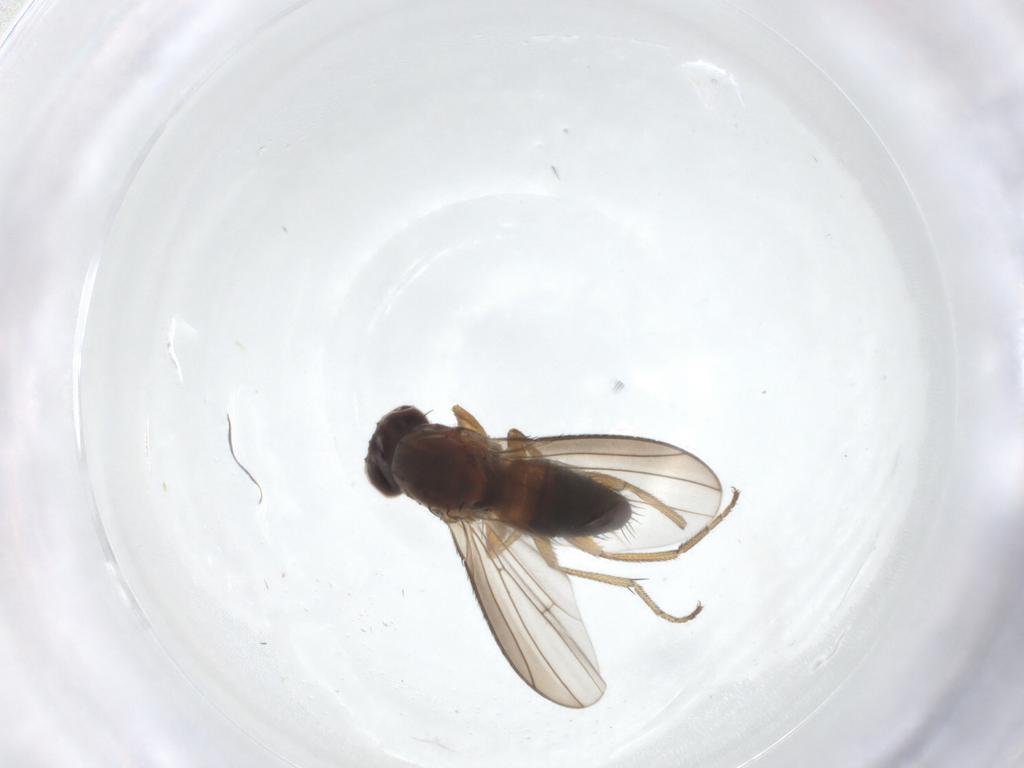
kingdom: Animalia
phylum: Arthropoda
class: Insecta
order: Diptera
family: Heleomyzidae
